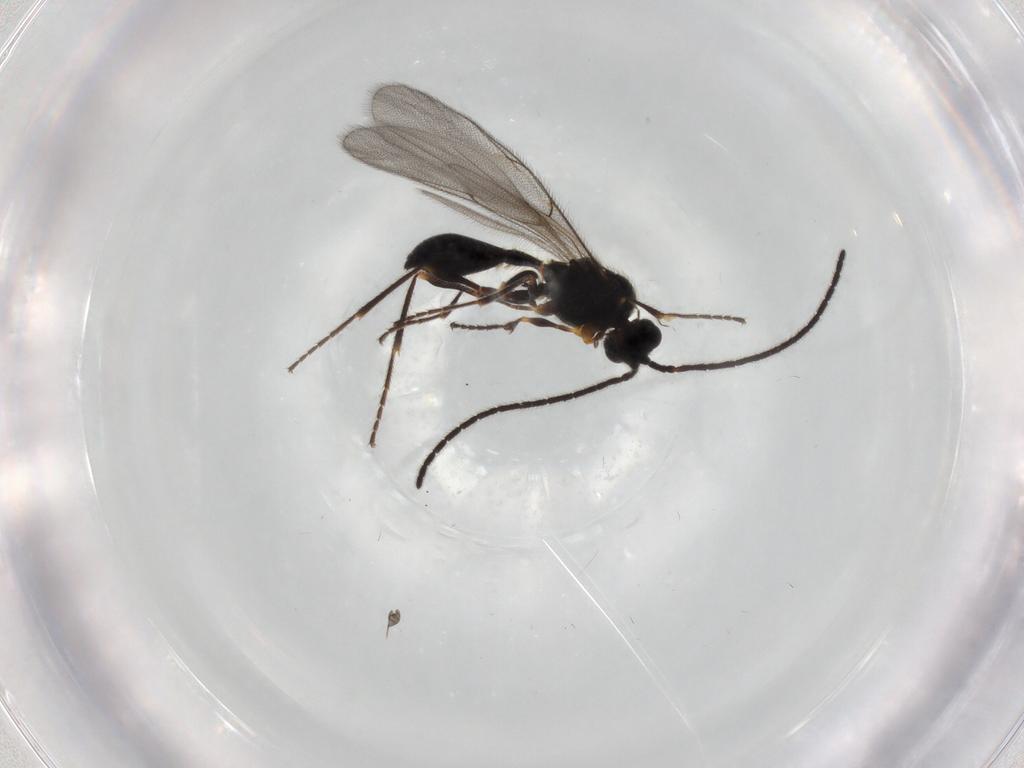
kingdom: Animalia
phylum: Arthropoda
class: Insecta
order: Hymenoptera
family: Diapriidae
